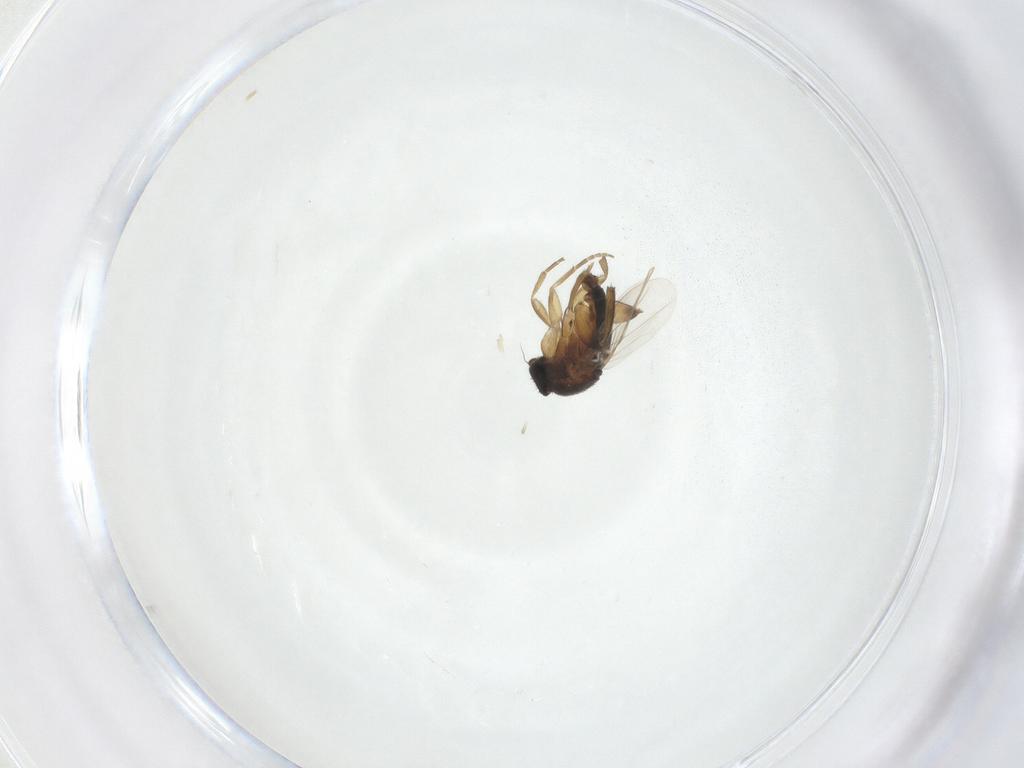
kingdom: Animalia
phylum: Arthropoda
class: Insecta
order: Diptera
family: Phoridae
